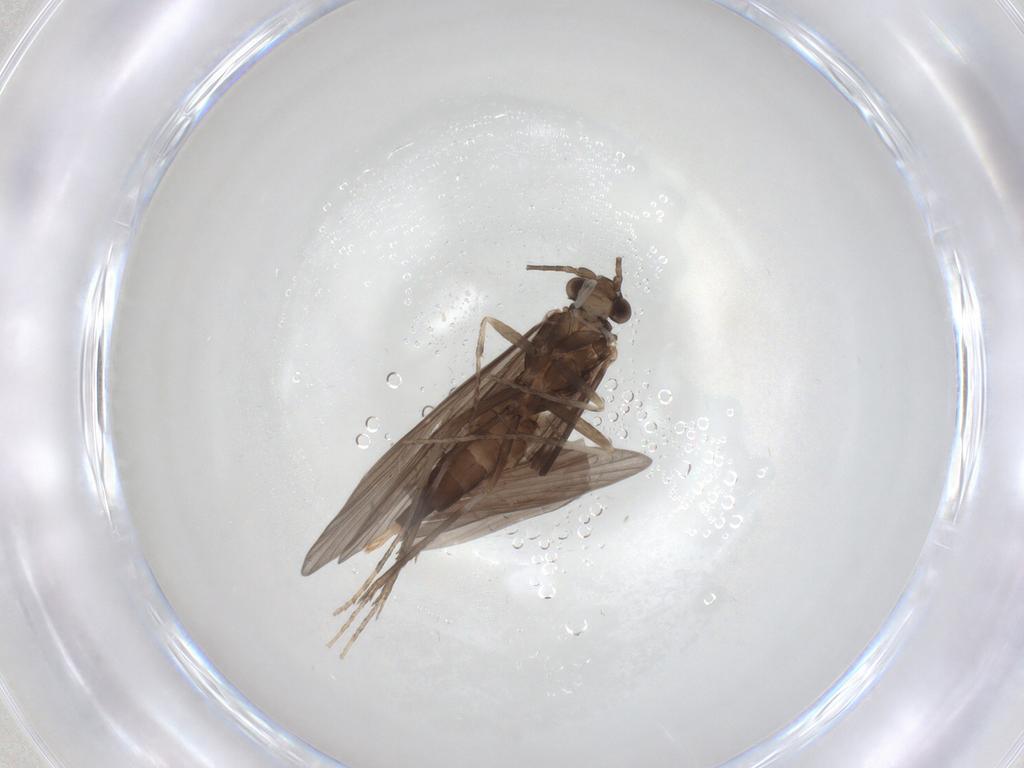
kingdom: Animalia
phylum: Arthropoda
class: Insecta
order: Trichoptera
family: Xiphocentronidae
